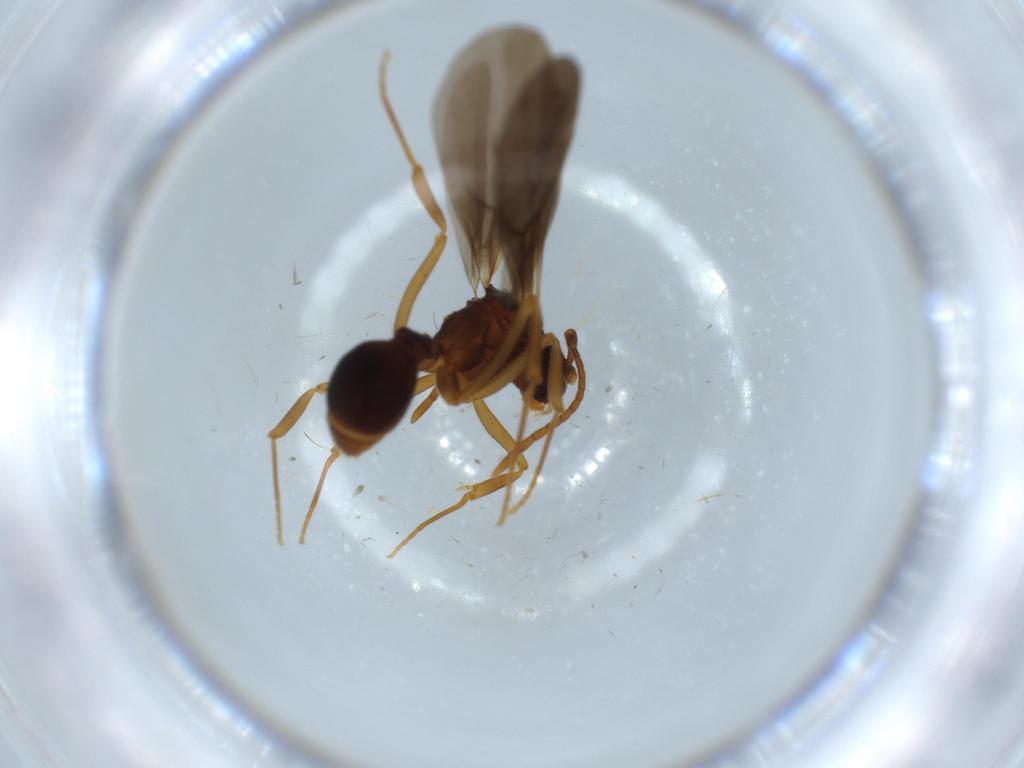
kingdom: Animalia
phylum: Arthropoda
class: Insecta
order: Hymenoptera
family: Formicidae
